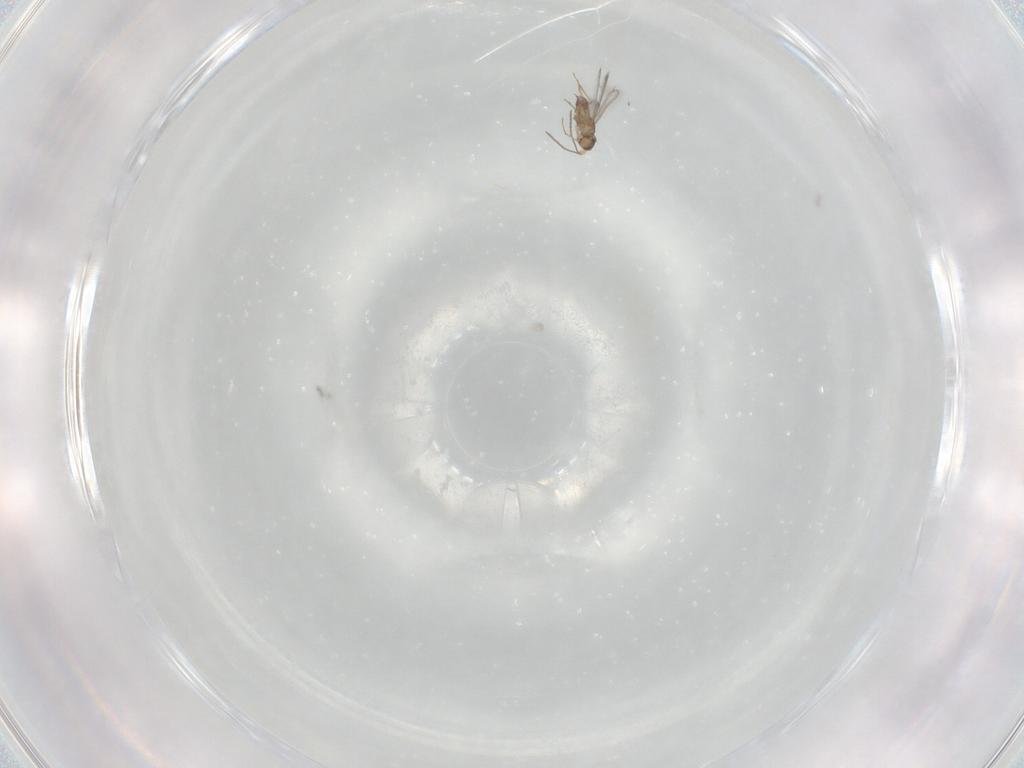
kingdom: Animalia
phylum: Arthropoda
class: Insecta
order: Hymenoptera
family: Mymaridae
